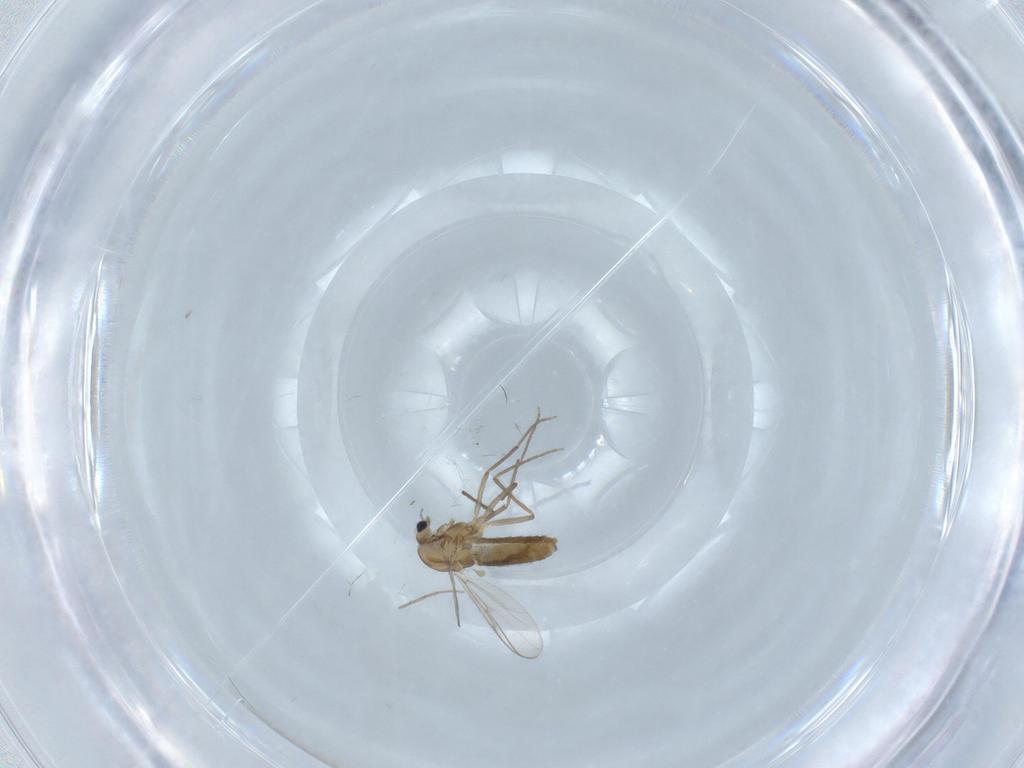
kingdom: Animalia
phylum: Arthropoda
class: Insecta
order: Diptera
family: Chironomidae
